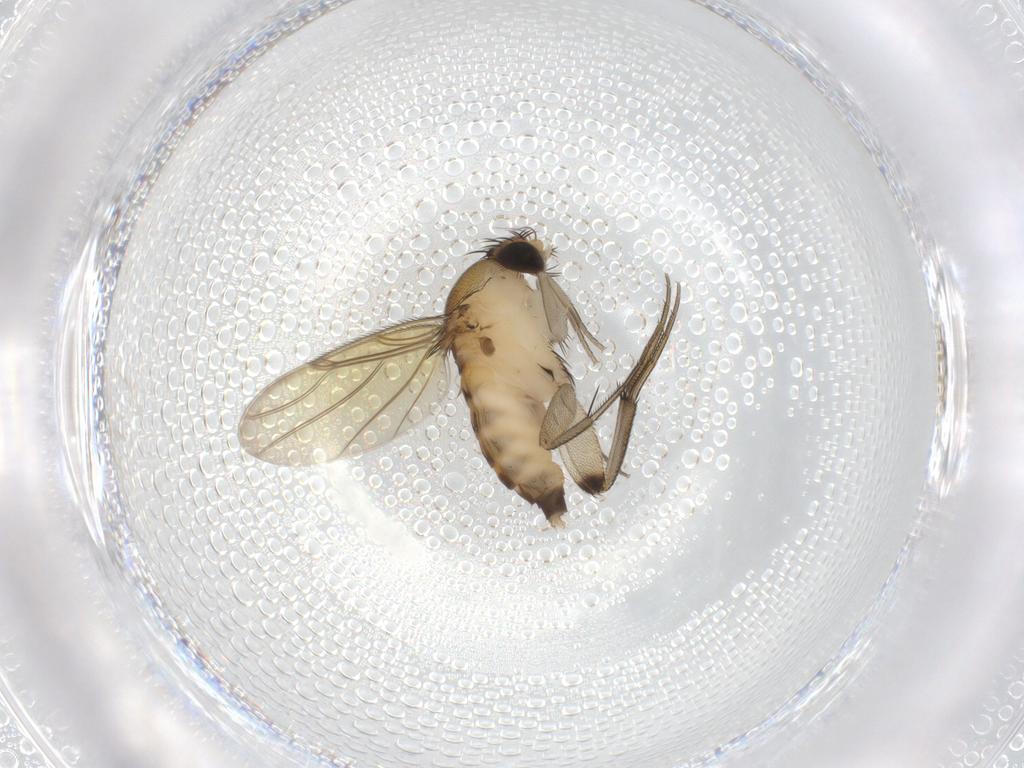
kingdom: Animalia
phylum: Arthropoda
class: Insecta
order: Diptera
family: Phoridae
